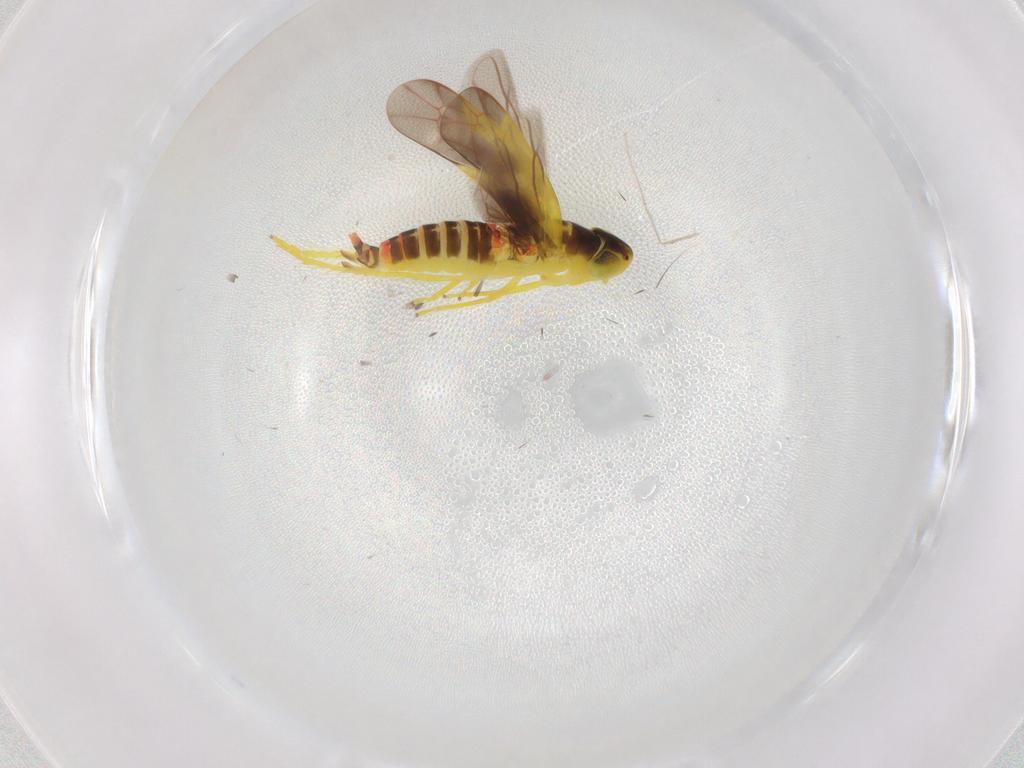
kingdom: Animalia
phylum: Arthropoda
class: Insecta
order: Hemiptera
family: Cicadellidae
